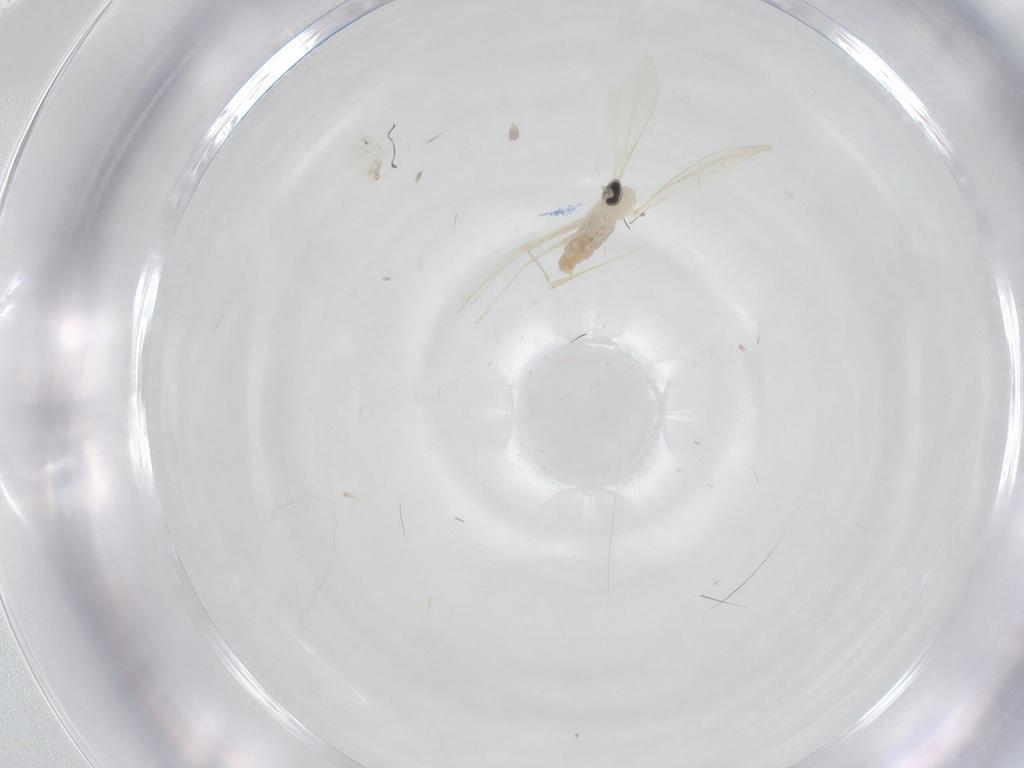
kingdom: Animalia
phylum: Arthropoda
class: Insecta
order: Diptera
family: Cecidomyiidae
